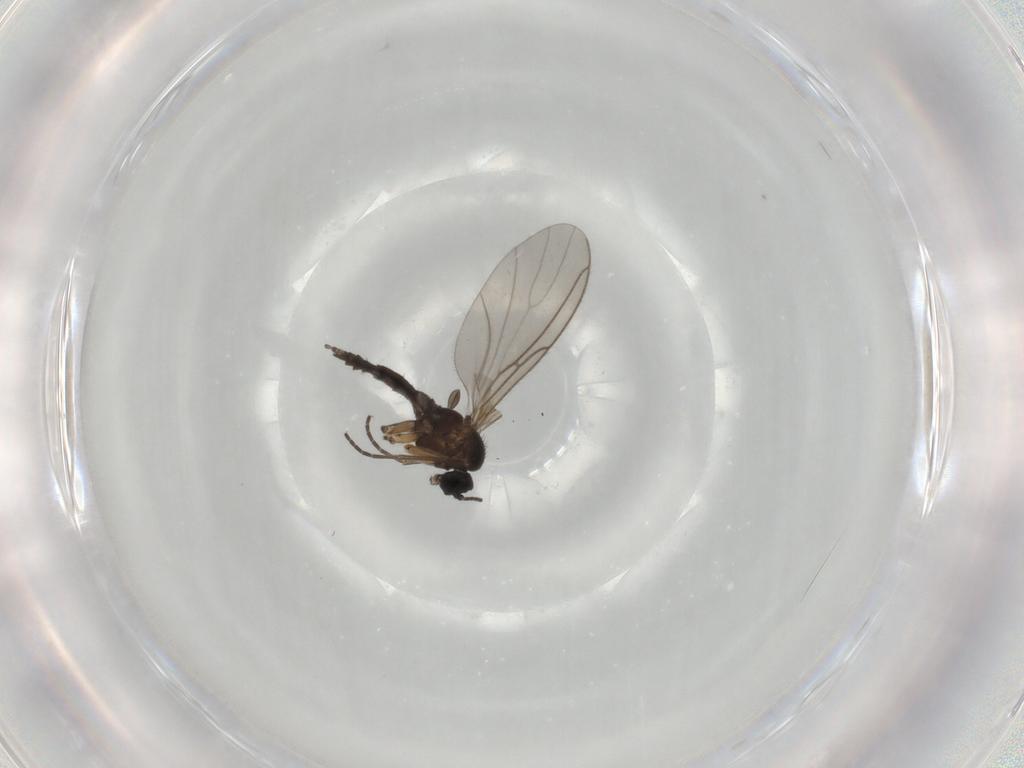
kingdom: Animalia
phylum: Arthropoda
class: Insecta
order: Diptera
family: Sciaridae
